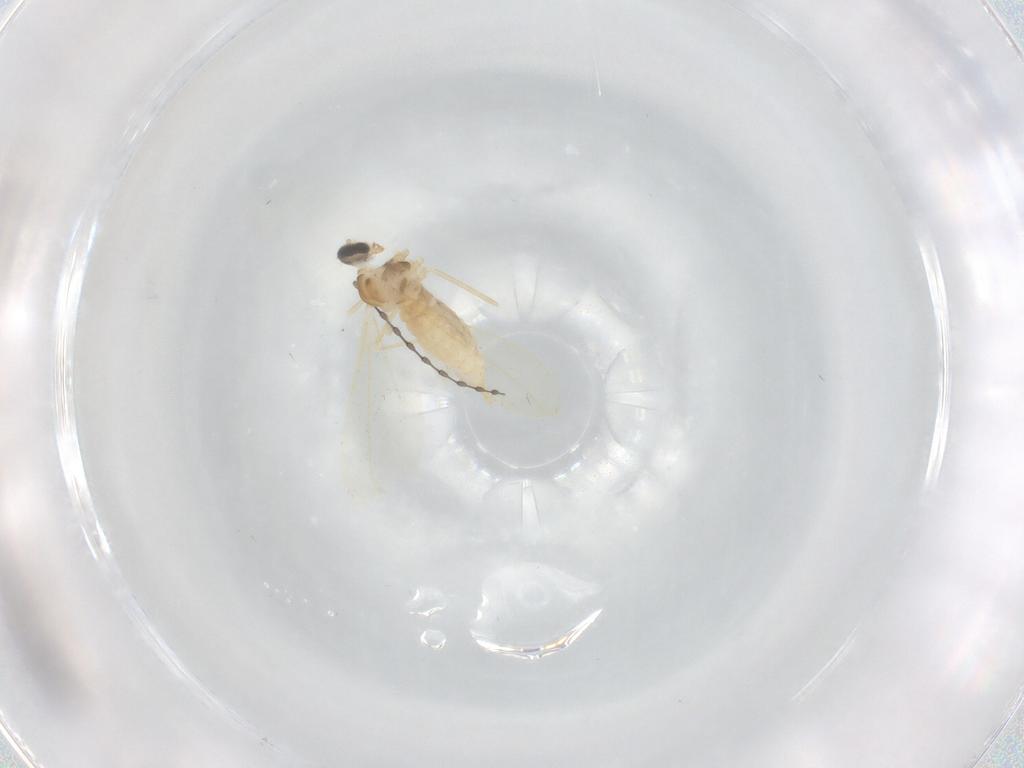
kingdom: Animalia
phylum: Arthropoda
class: Insecta
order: Diptera
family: Cecidomyiidae
